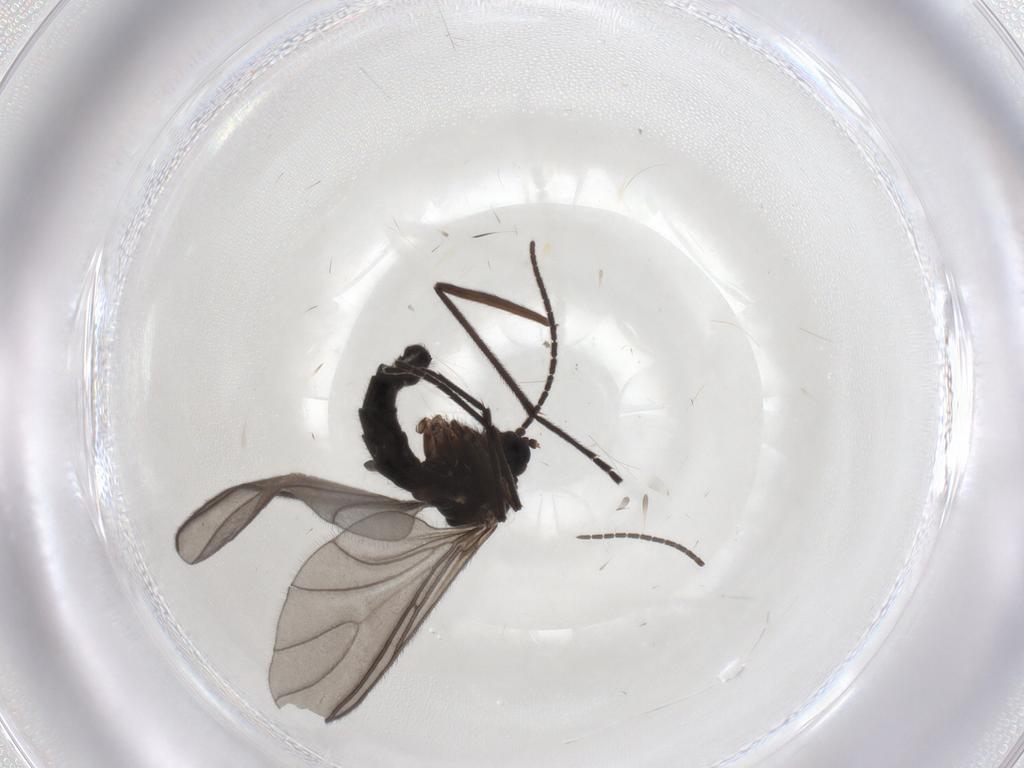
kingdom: Animalia
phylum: Arthropoda
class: Insecta
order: Diptera
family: Sciaridae
